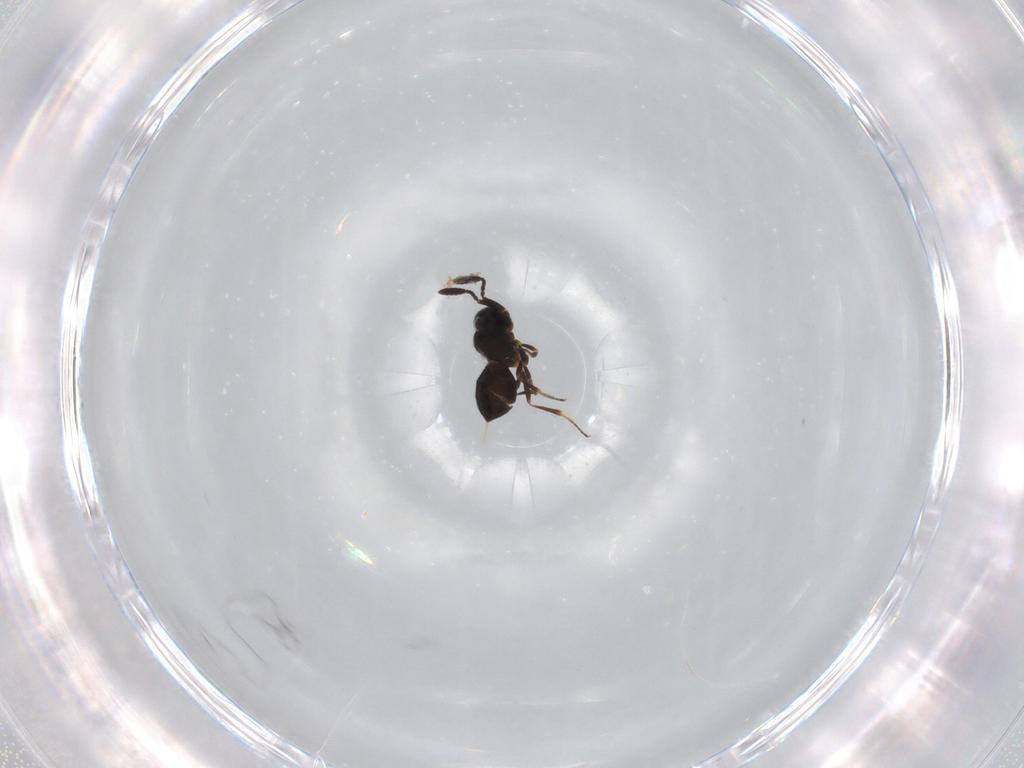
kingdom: Animalia
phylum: Arthropoda
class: Insecta
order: Hymenoptera
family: Scelionidae
